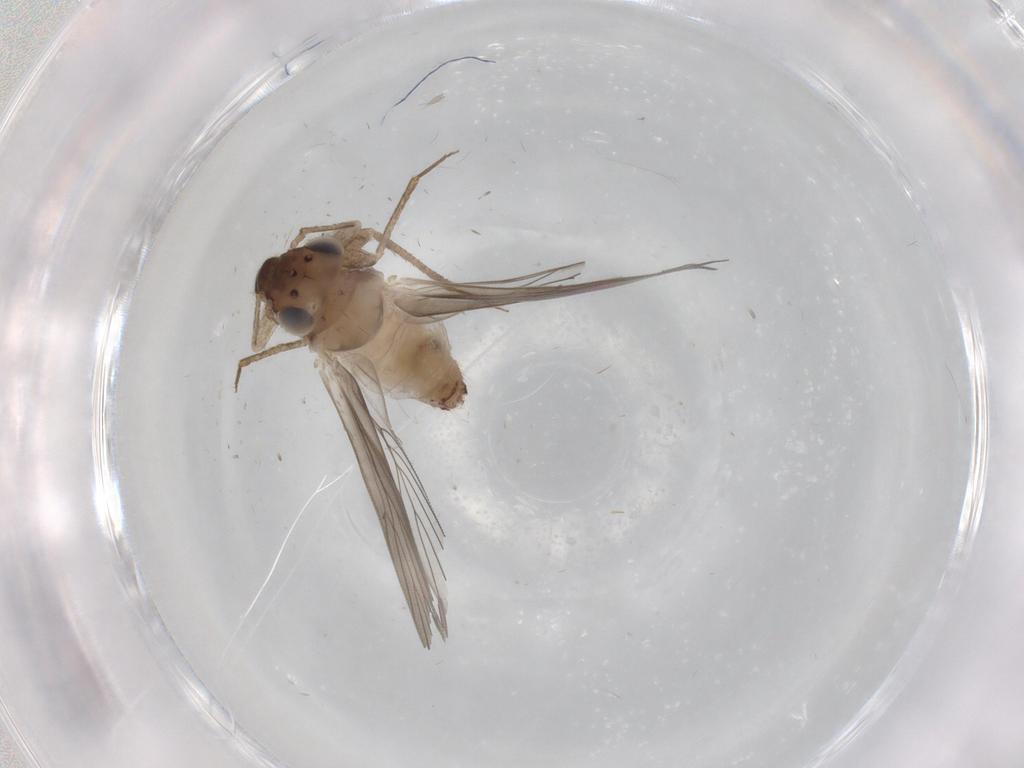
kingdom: Animalia
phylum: Arthropoda
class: Insecta
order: Psocodea
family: Lepidopsocidae
